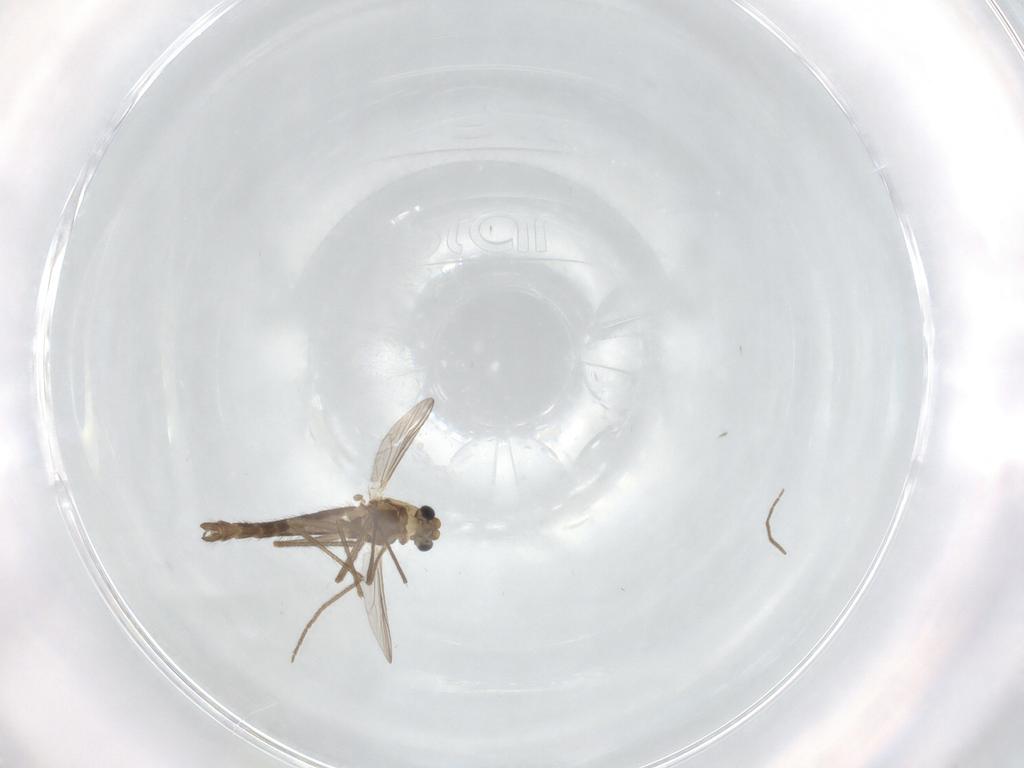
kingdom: Animalia
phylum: Arthropoda
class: Insecta
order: Diptera
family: Chironomidae
